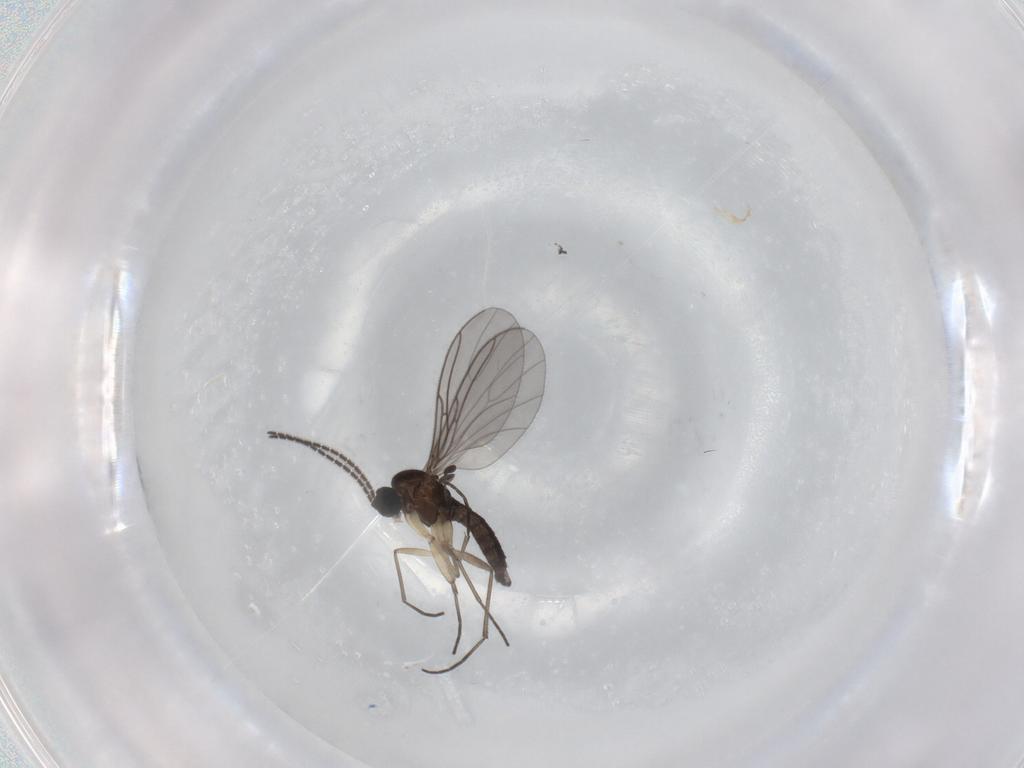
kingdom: Animalia
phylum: Arthropoda
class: Insecta
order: Diptera
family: Sciaridae
